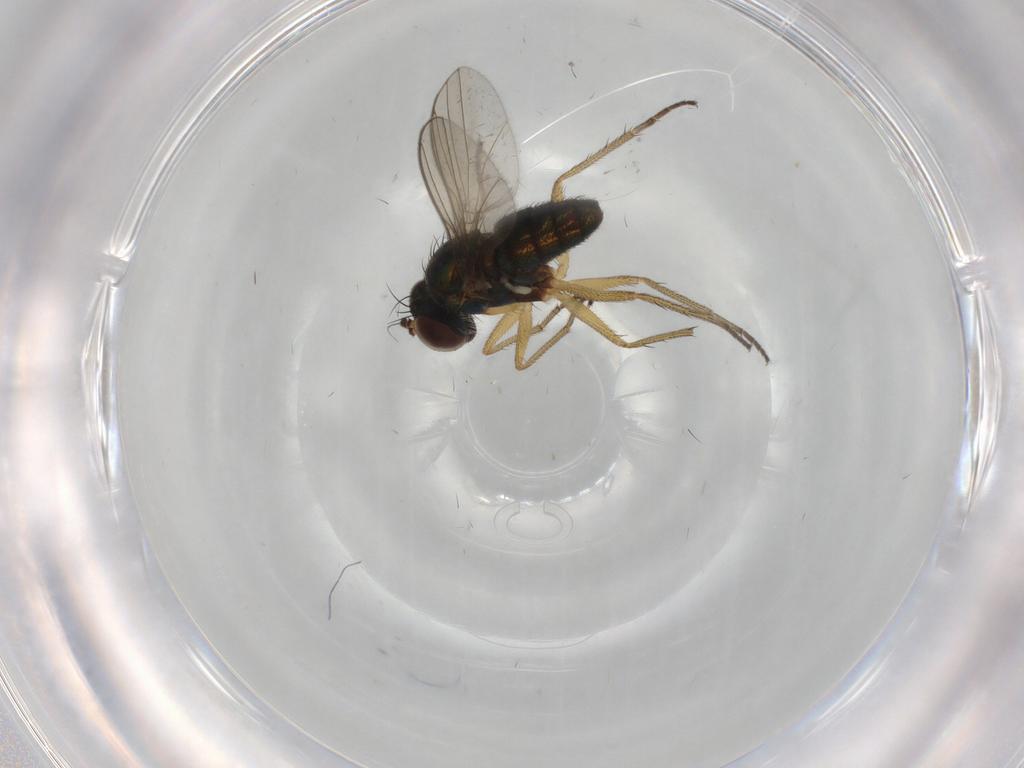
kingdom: Animalia
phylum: Arthropoda
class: Insecta
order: Diptera
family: Dolichopodidae
